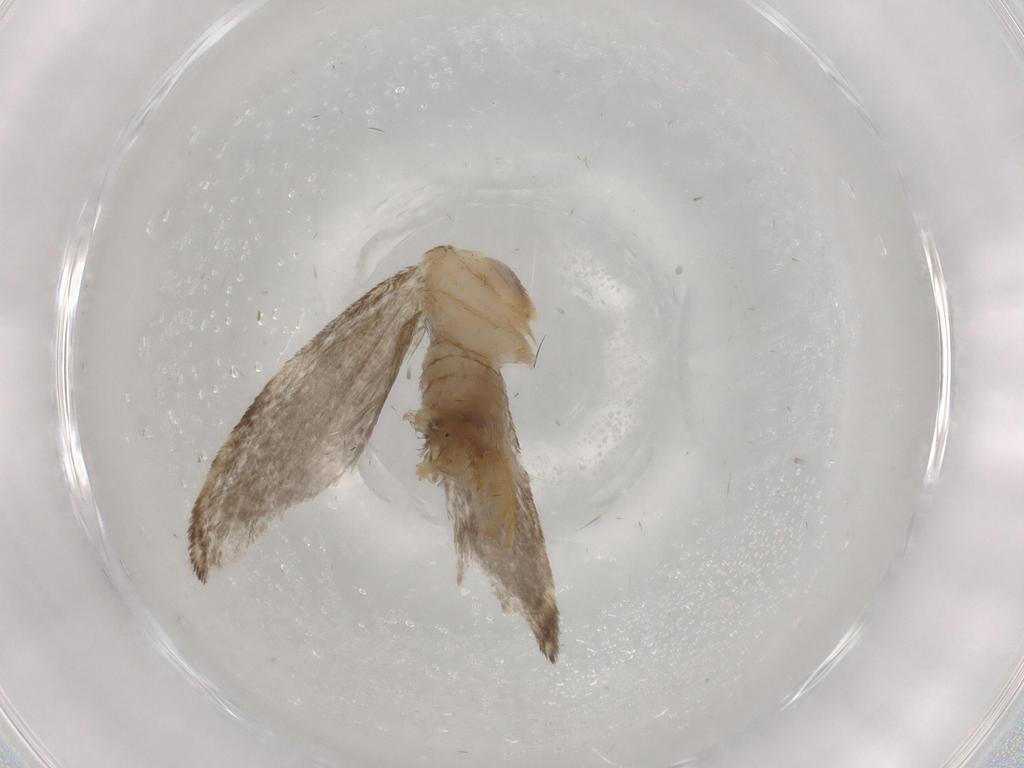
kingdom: Animalia
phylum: Arthropoda
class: Insecta
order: Lepidoptera
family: Tineidae
